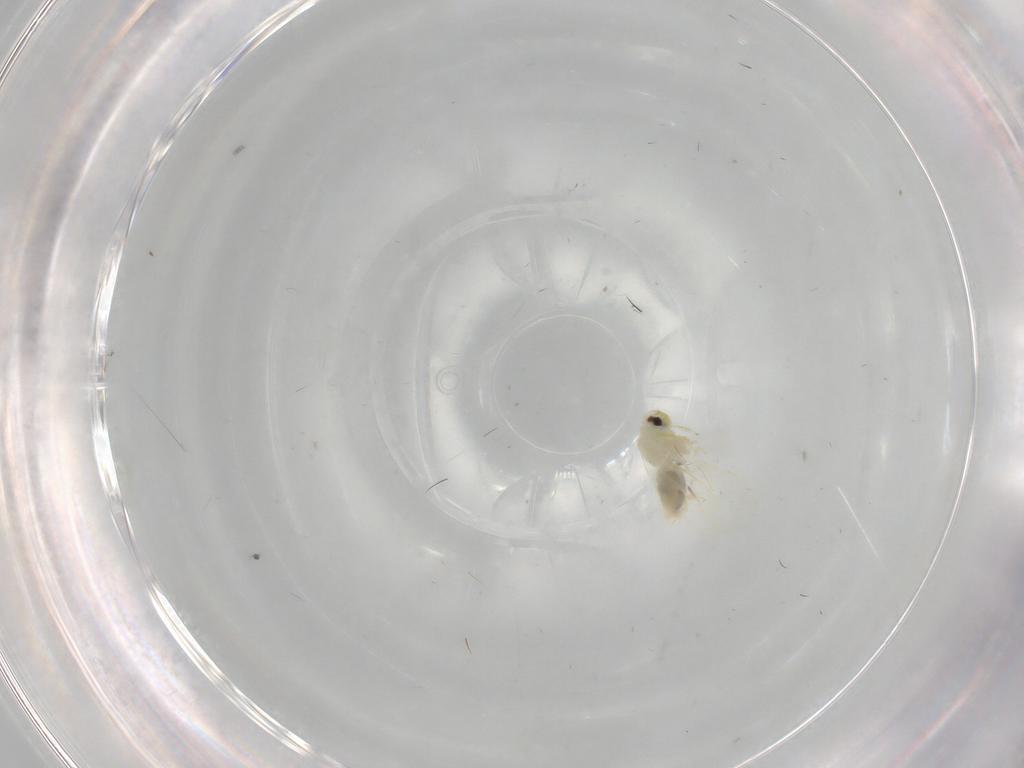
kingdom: Animalia
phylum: Arthropoda
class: Insecta
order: Hemiptera
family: Aleyrodidae
